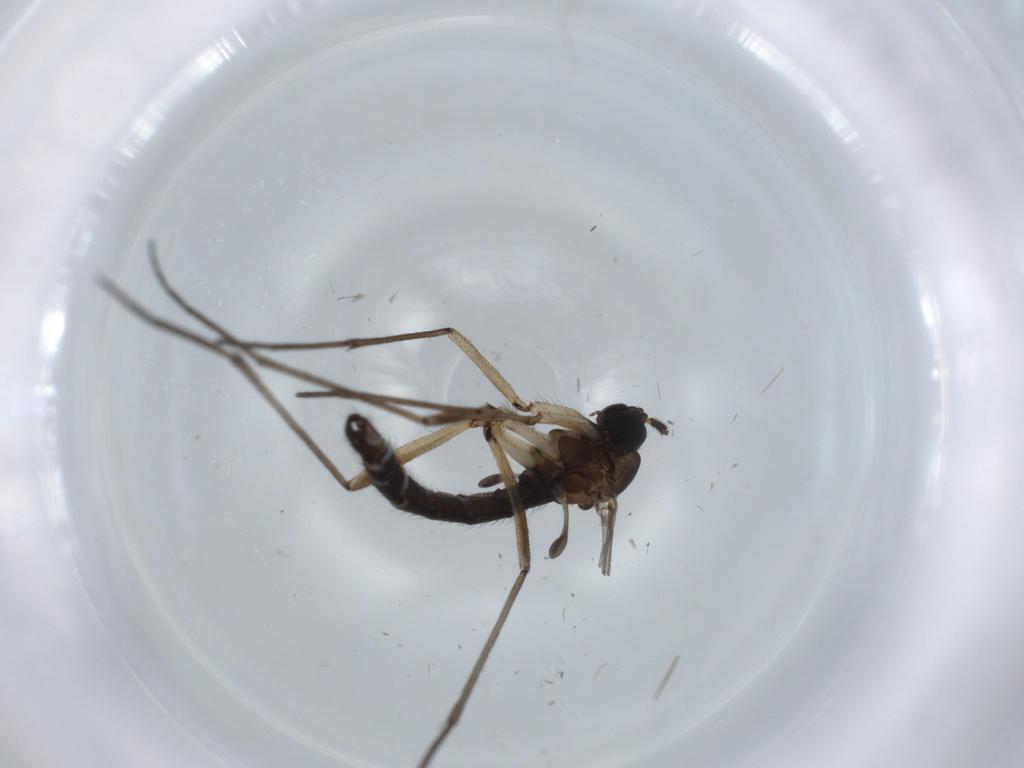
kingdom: Animalia
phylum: Arthropoda
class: Insecta
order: Diptera
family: Sciaridae
